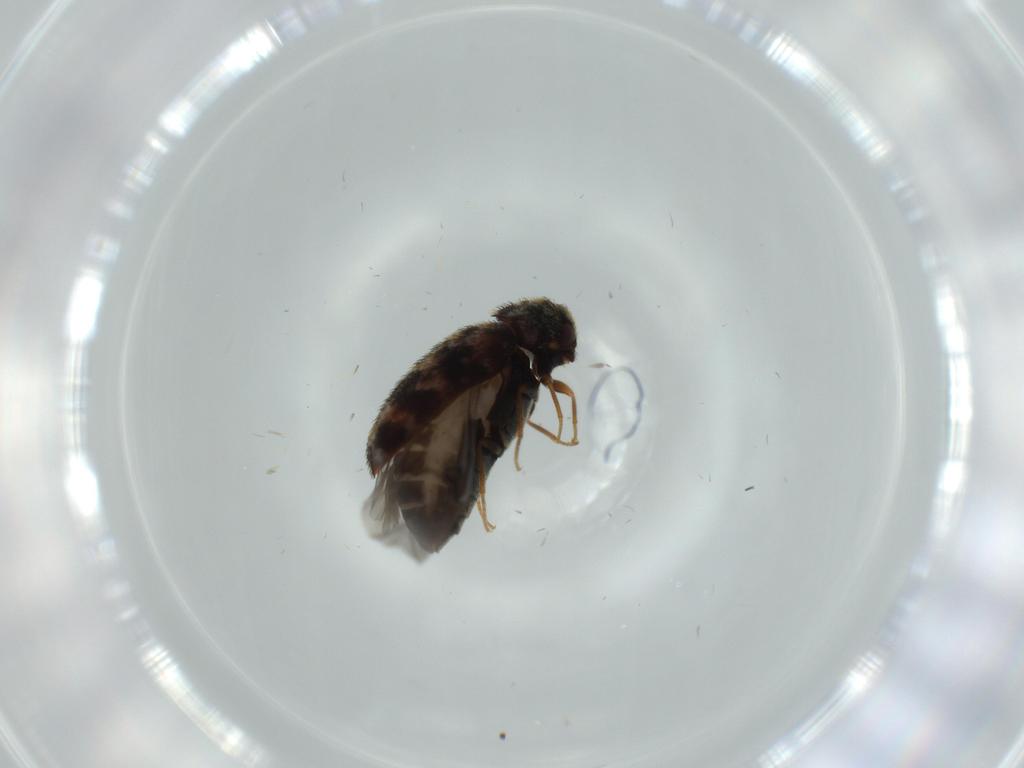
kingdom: Animalia
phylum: Arthropoda
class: Insecta
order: Coleoptera
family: Dermestidae
